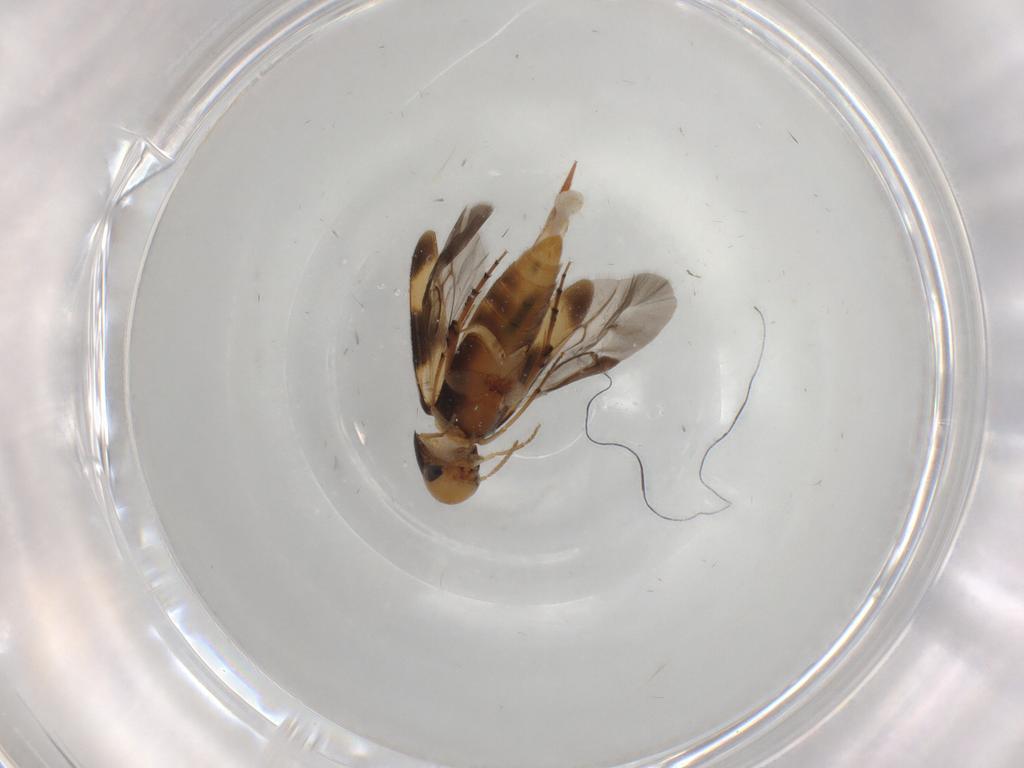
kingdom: Animalia
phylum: Arthropoda
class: Insecta
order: Coleoptera
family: Mordellidae
